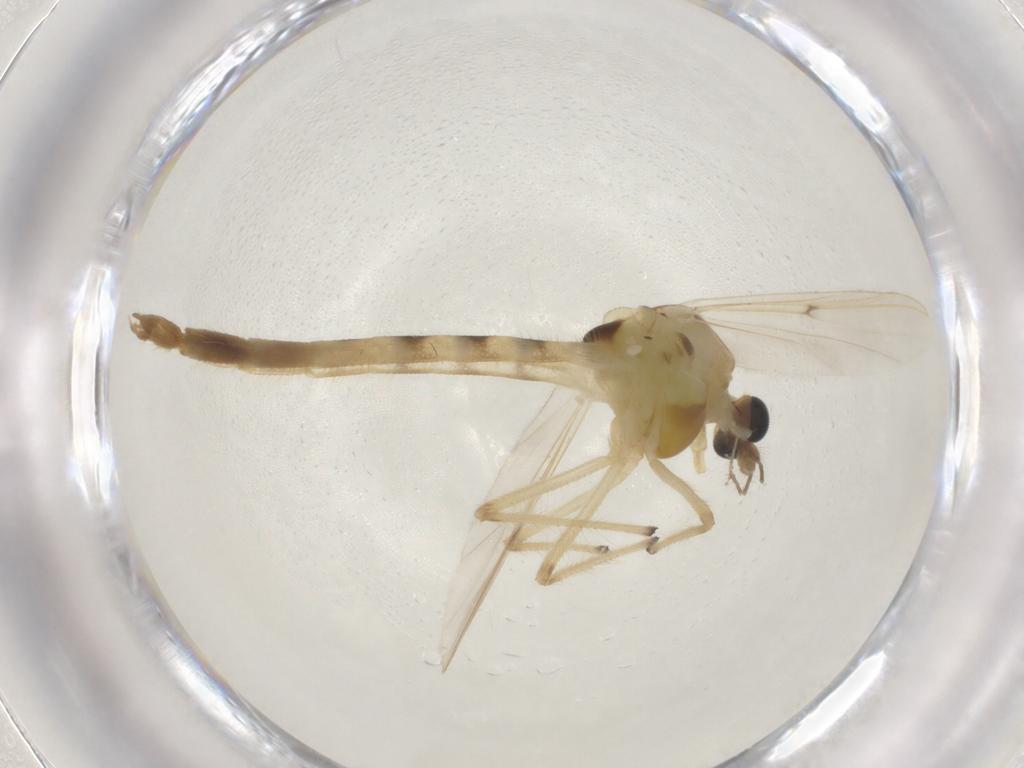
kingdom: Animalia
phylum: Arthropoda
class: Insecta
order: Diptera
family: Chironomidae
